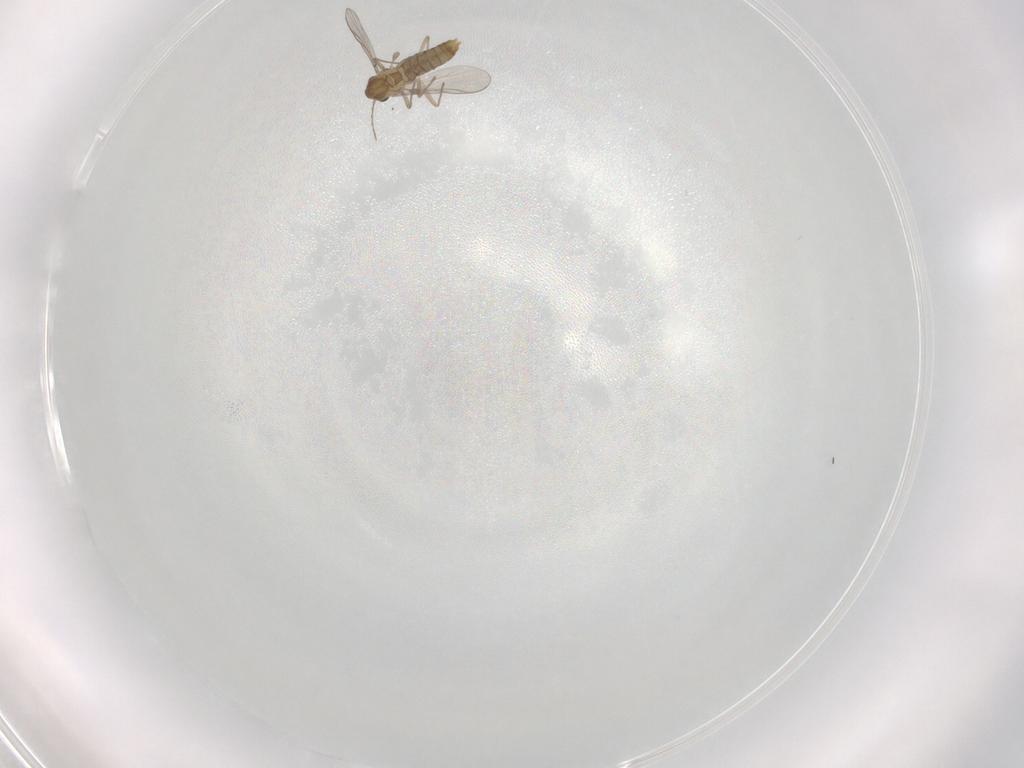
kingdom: Animalia
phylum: Arthropoda
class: Insecta
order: Diptera
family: Chironomidae
